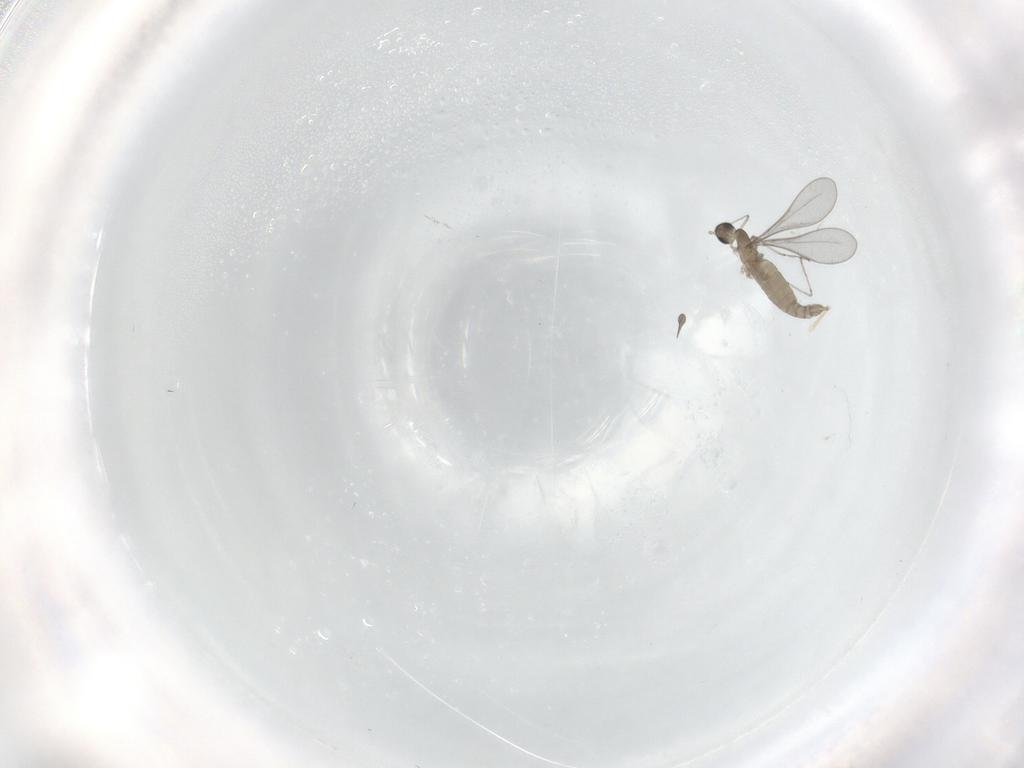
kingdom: Animalia
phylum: Arthropoda
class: Insecta
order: Diptera
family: Cecidomyiidae
